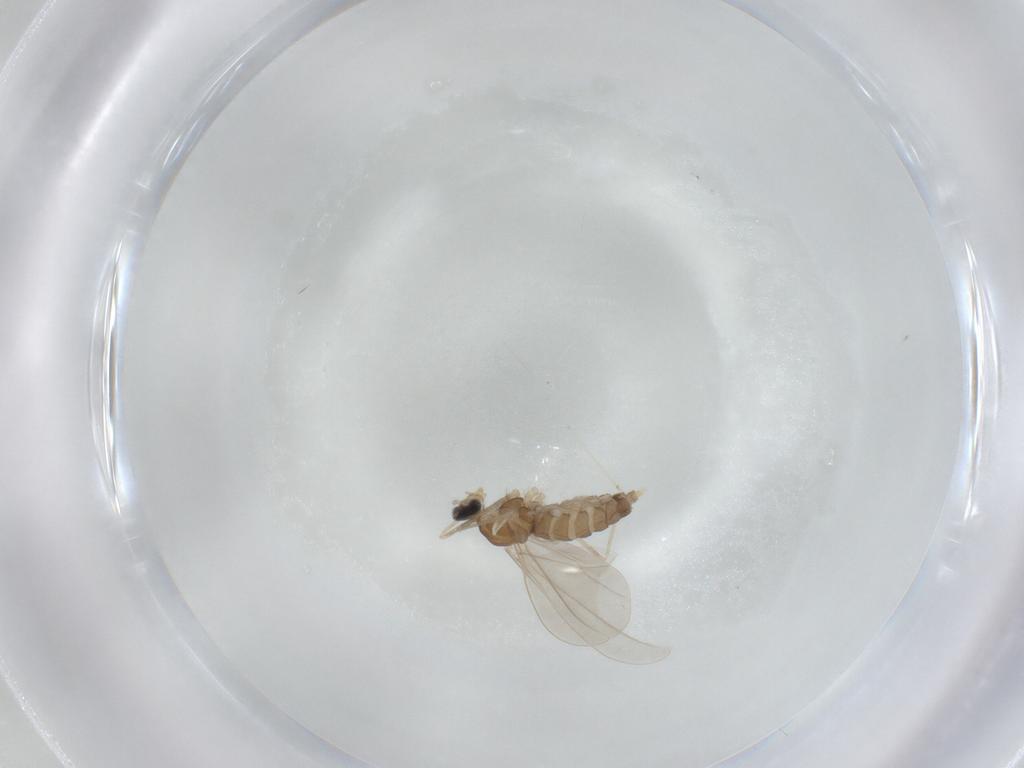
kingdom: Animalia
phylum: Arthropoda
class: Insecta
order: Diptera
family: Cecidomyiidae
